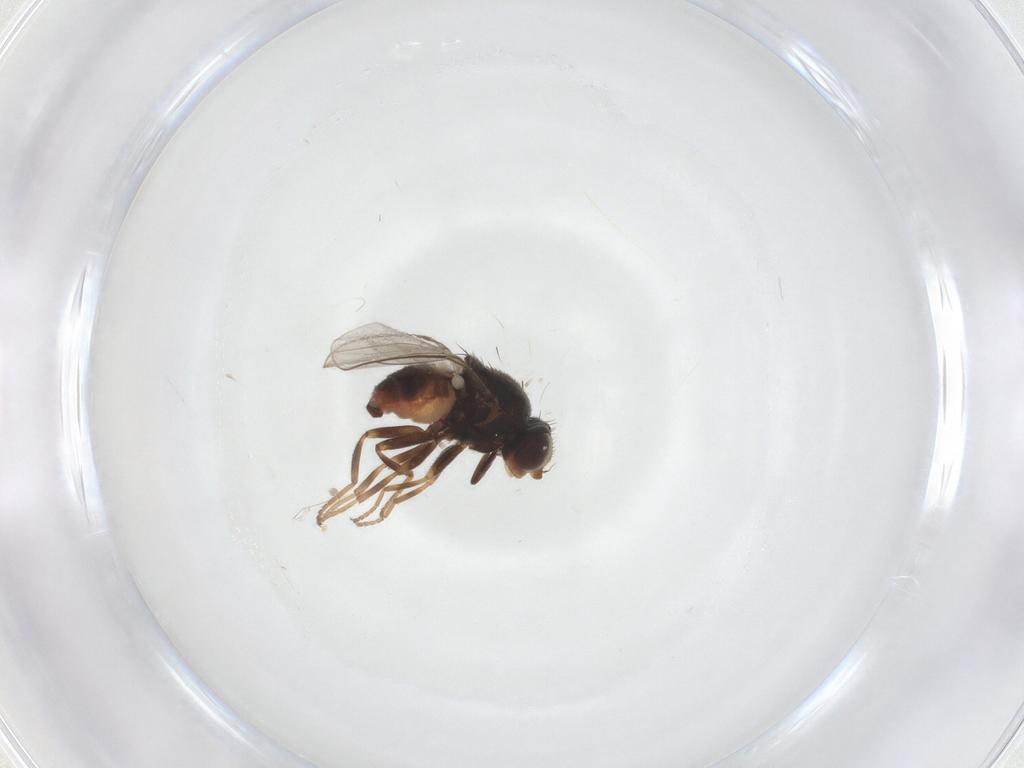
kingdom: Animalia
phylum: Arthropoda
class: Insecta
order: Diptera
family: Chloropidae
